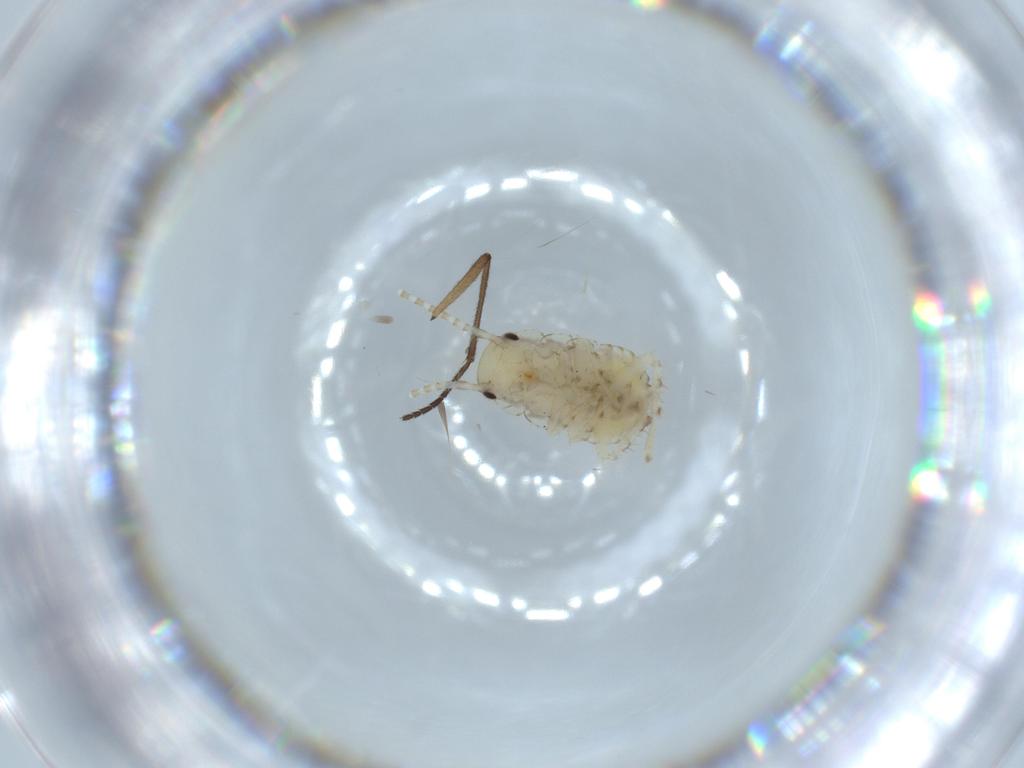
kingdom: Animalia
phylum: Arthropoda
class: Insecta
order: Blattodea
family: Ectobiidae
